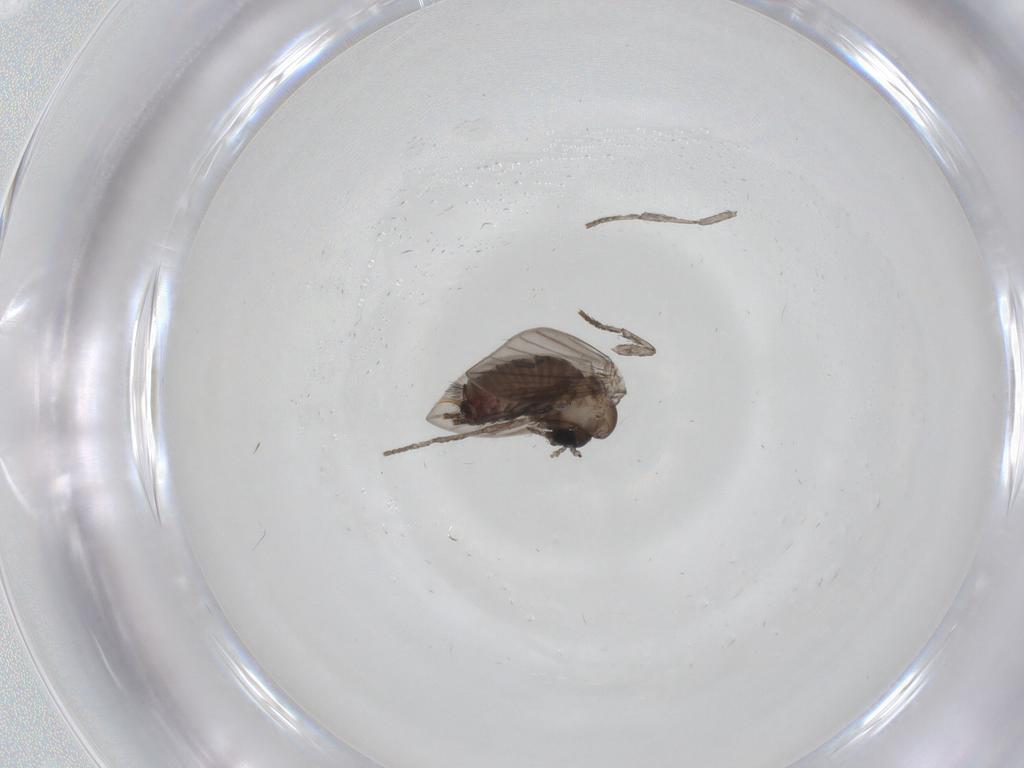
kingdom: Animalia
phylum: Arthropoda
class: Insecta
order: Diptera
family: Psychodidae
